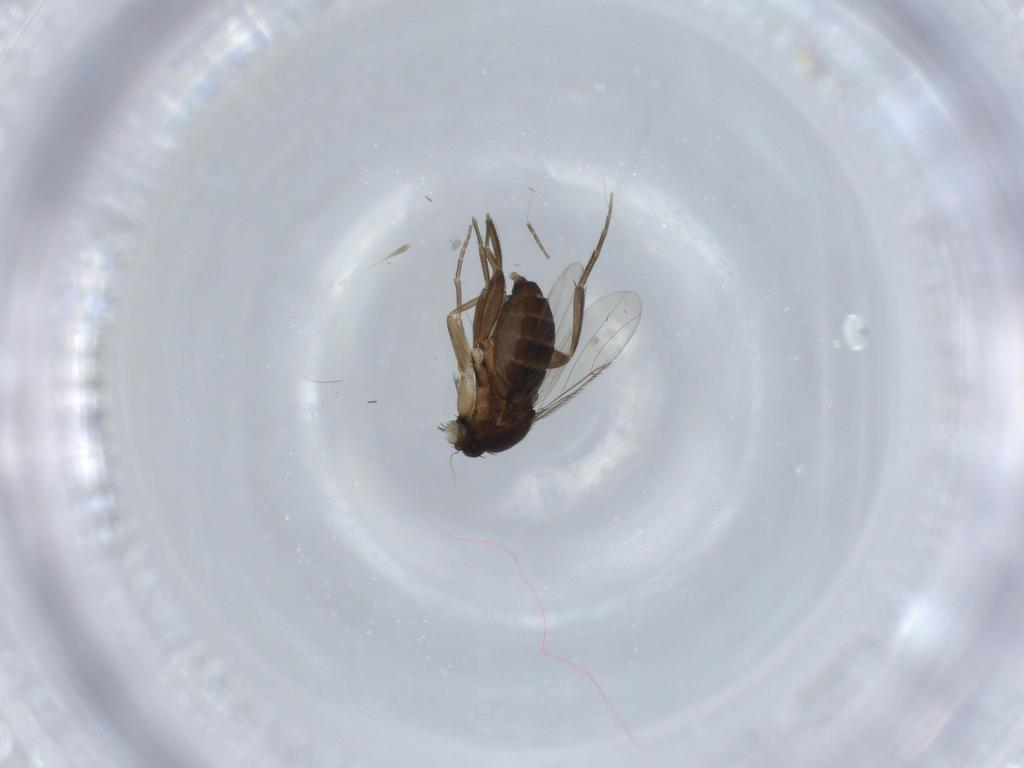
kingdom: Animalia
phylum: Arthropoda
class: Insecta
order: Diptera
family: Phoridae
